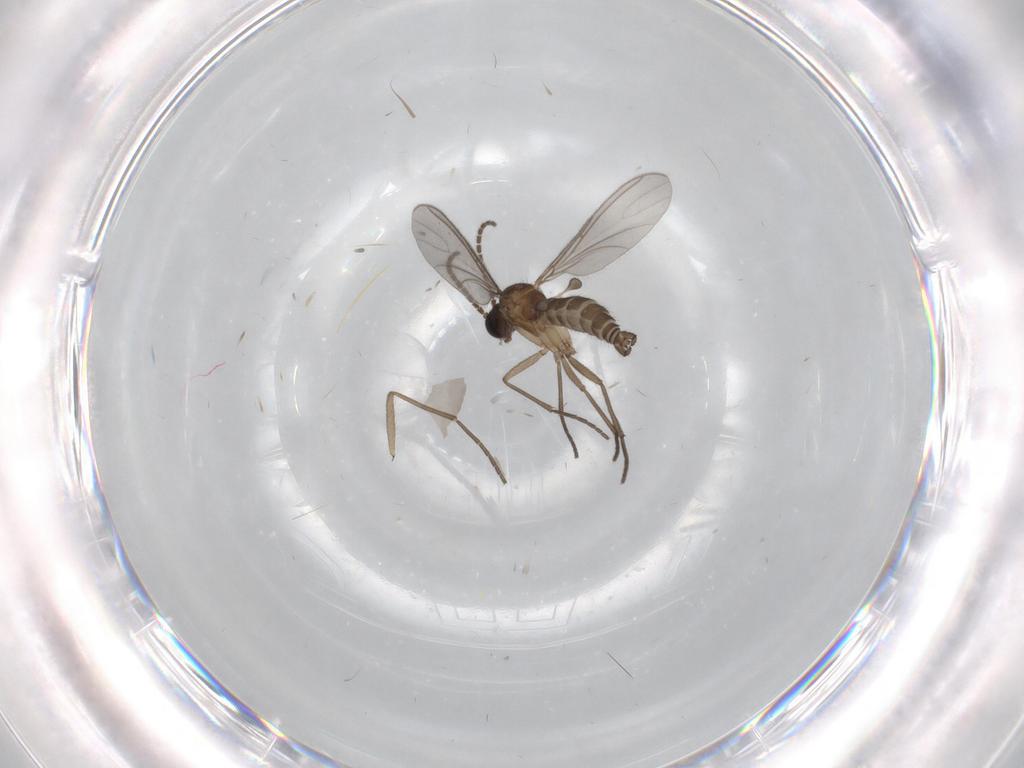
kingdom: Animalia
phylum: Arthropoda
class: Insecta
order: Diptera
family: Sciaridae
